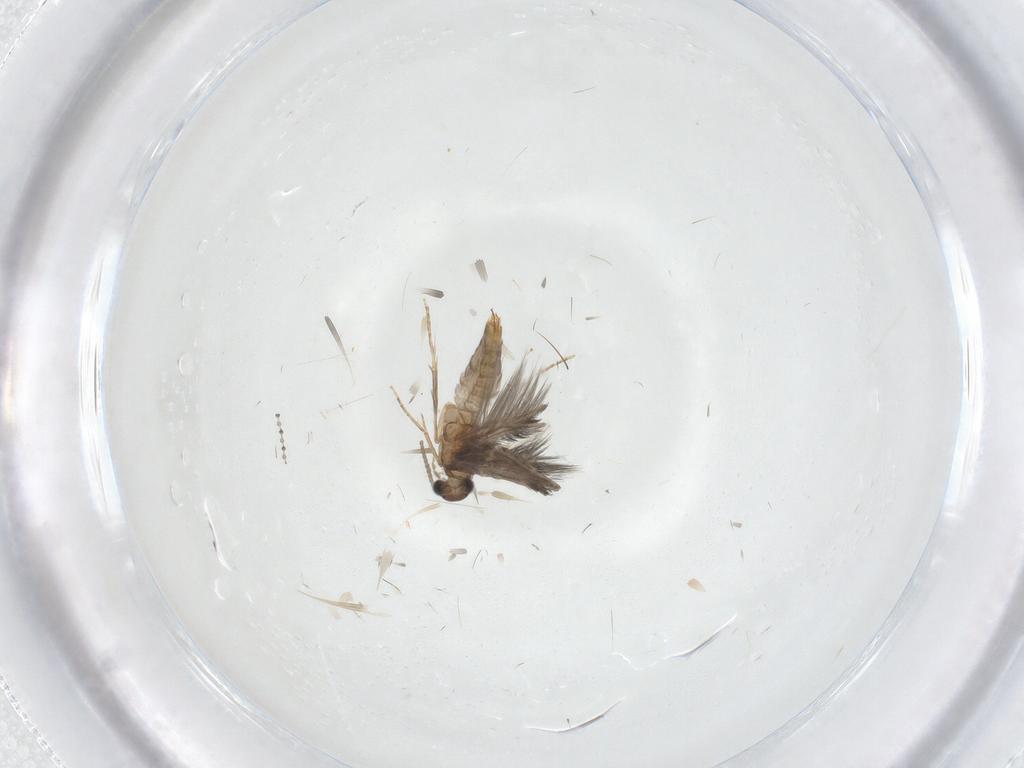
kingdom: Animalia
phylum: Arthropoda
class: Insecta
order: Trichoptera
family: Hydroptilidae
